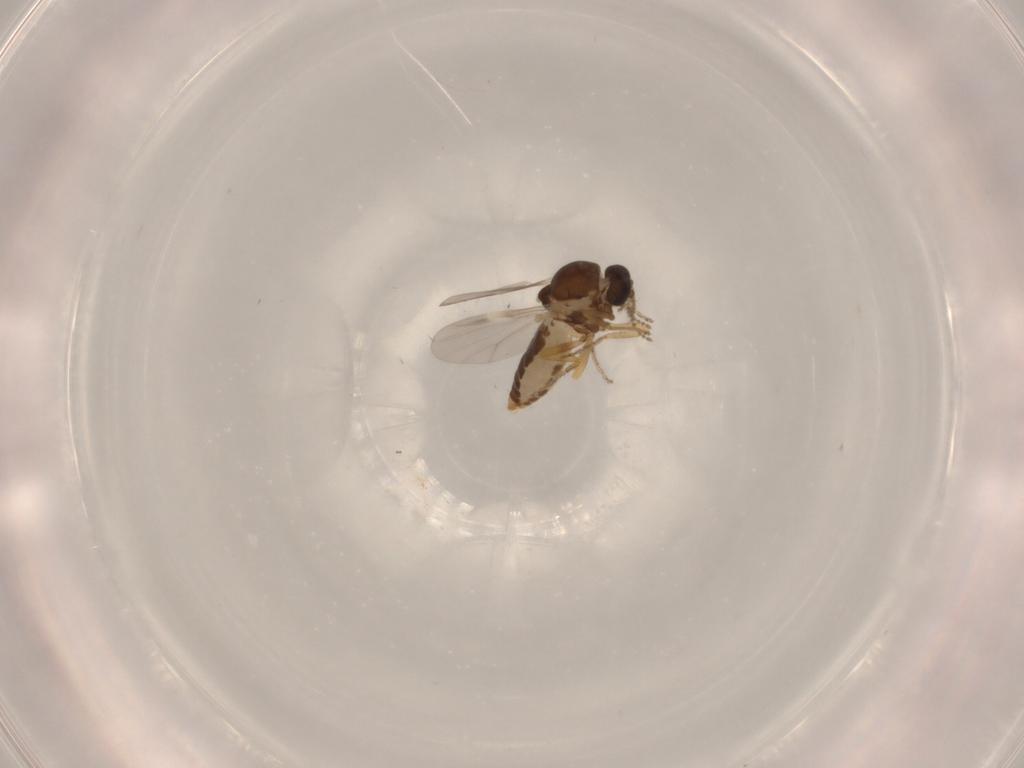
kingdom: Animalia
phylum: Arthropoda
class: Insecta
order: Diptera
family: Ceratopogonidae
